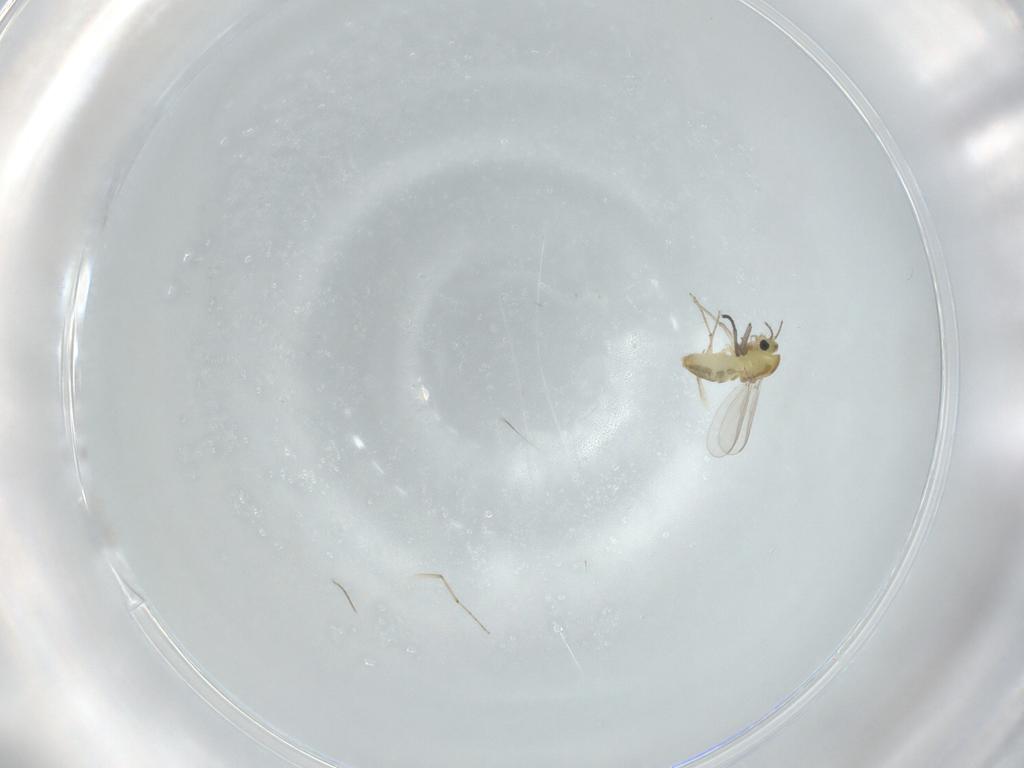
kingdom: Animalia
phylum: Arthropoda
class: Insecta
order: Diptera
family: Chironomidae
